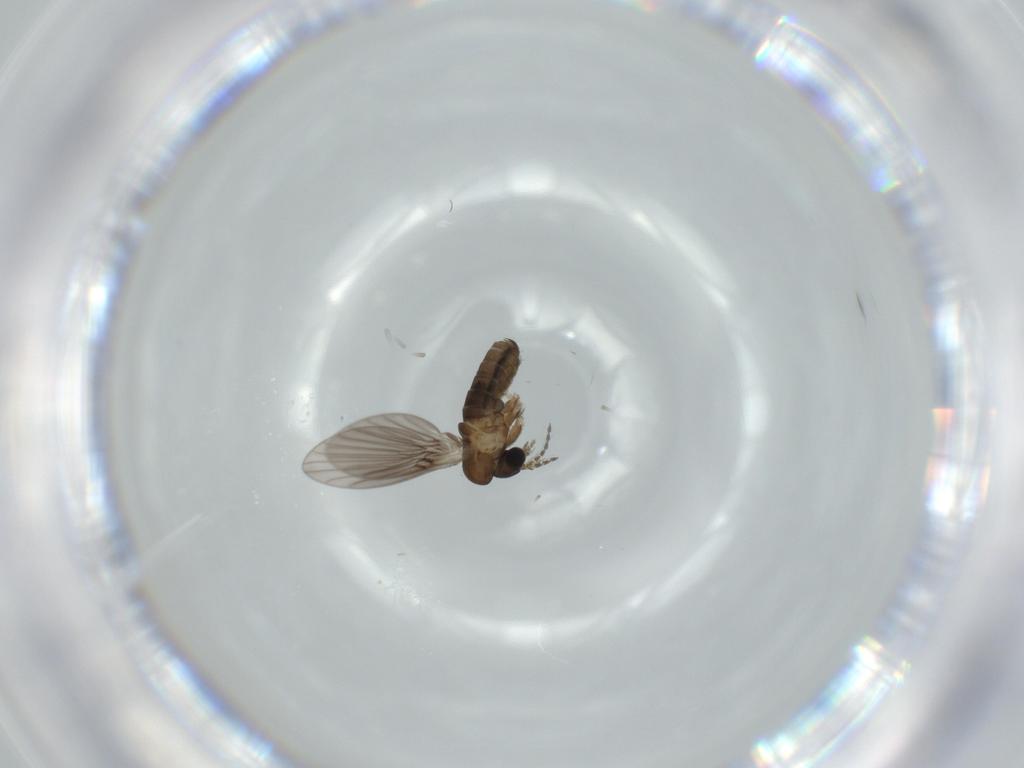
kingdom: Animalia
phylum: Arthropoda
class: Insecta
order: Diptera
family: Psychodidae
